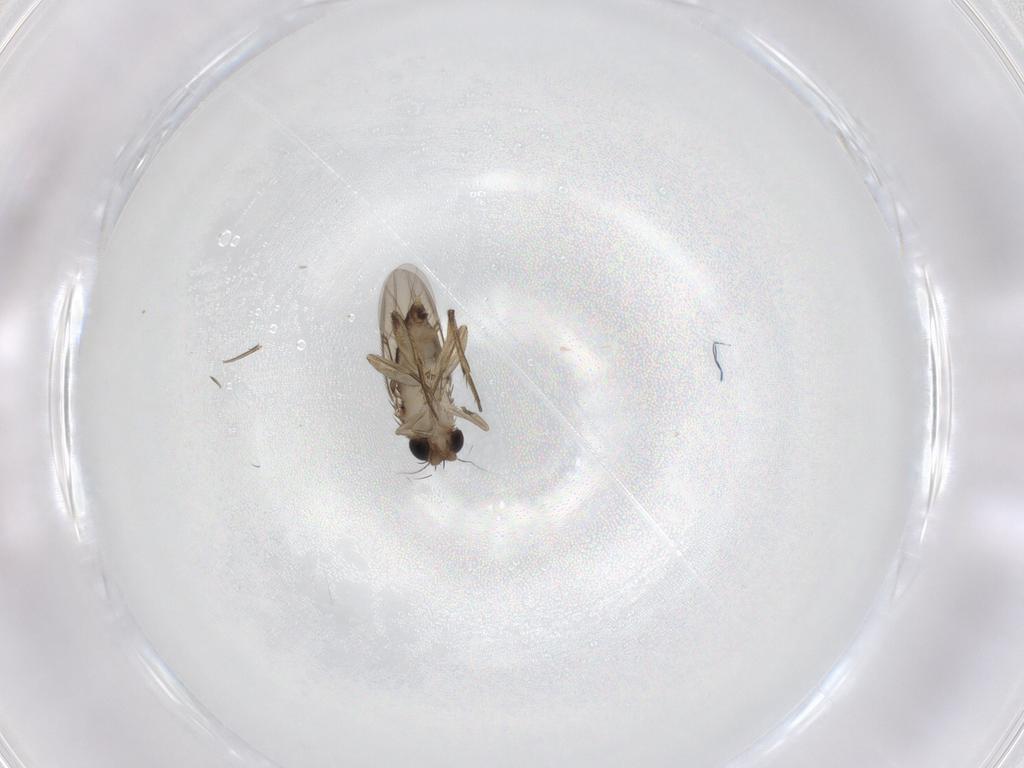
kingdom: Animalia
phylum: Arthropoda
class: Insecta
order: Diptera
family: Phoridae
